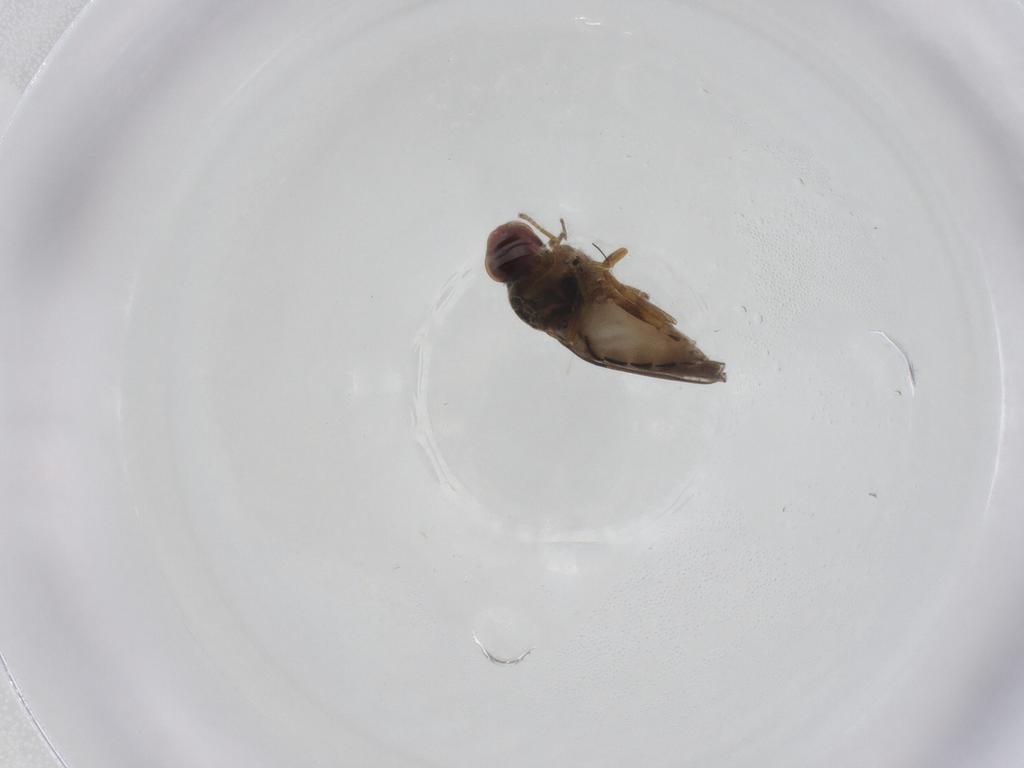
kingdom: Animalia
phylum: Arthropoda
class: Insecta
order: Diptera
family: Chloropidae
